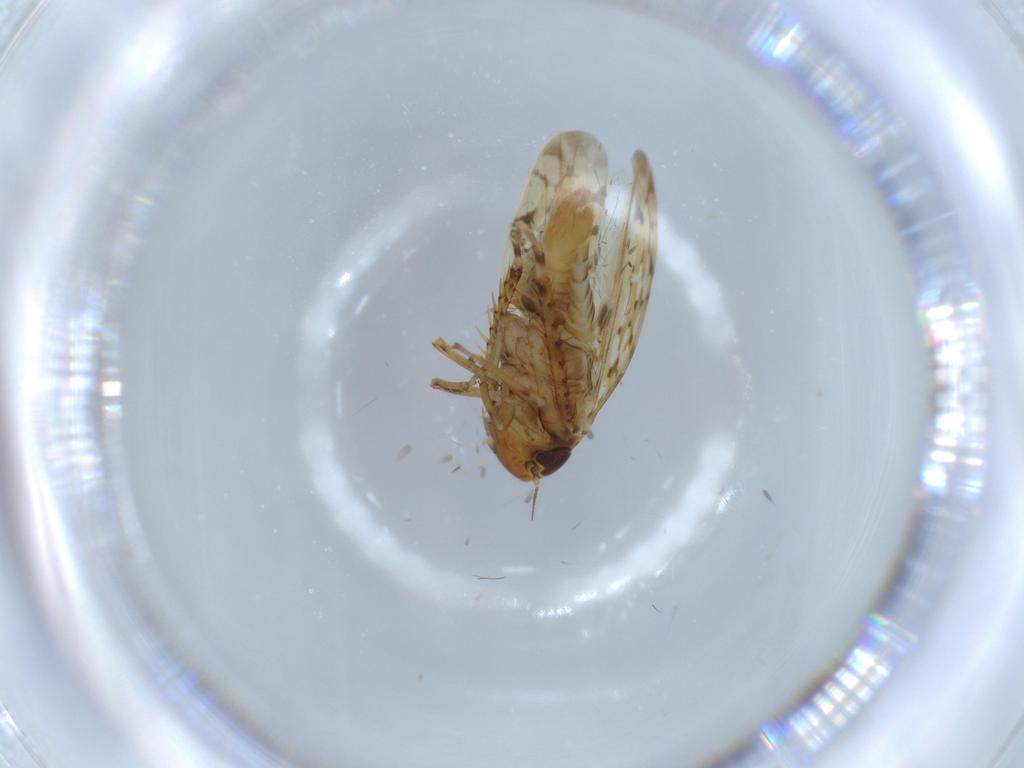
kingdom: Animalia
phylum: Arthropoda
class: Insecta
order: Hemiptera
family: Cicadellidae
